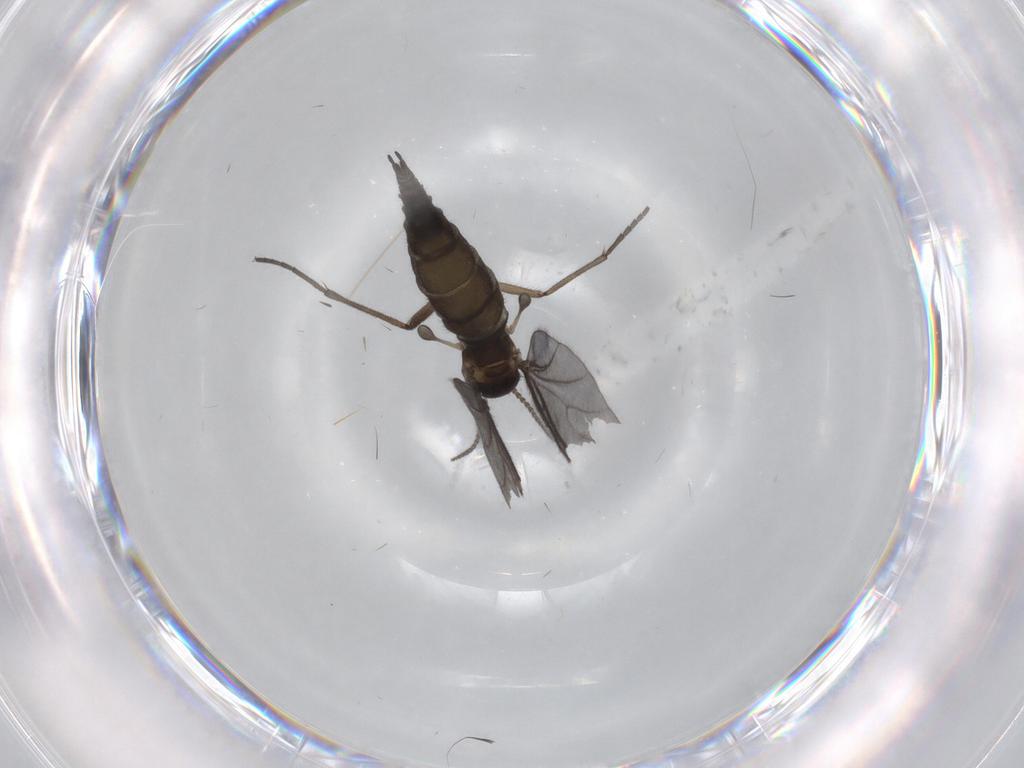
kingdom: Animalia
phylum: Arthropoda
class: Insecta
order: Diptera
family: Sciaridae
